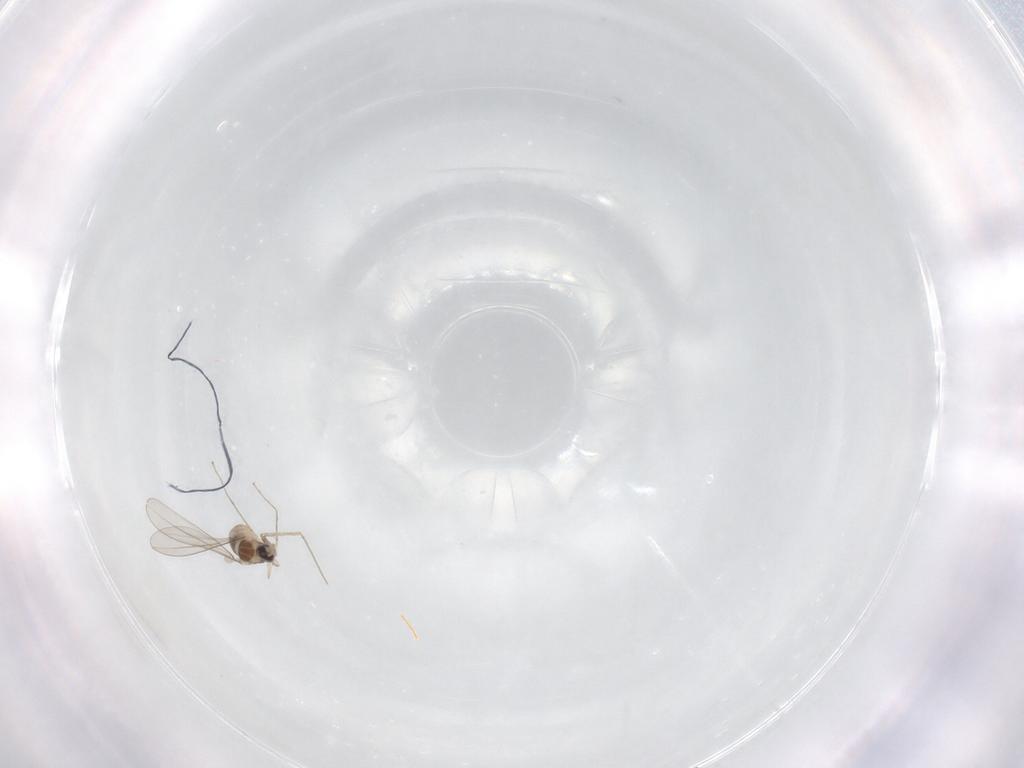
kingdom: Animalia
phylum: Arthropoda
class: Insecta
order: Diptera
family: Cecidomyiidae
